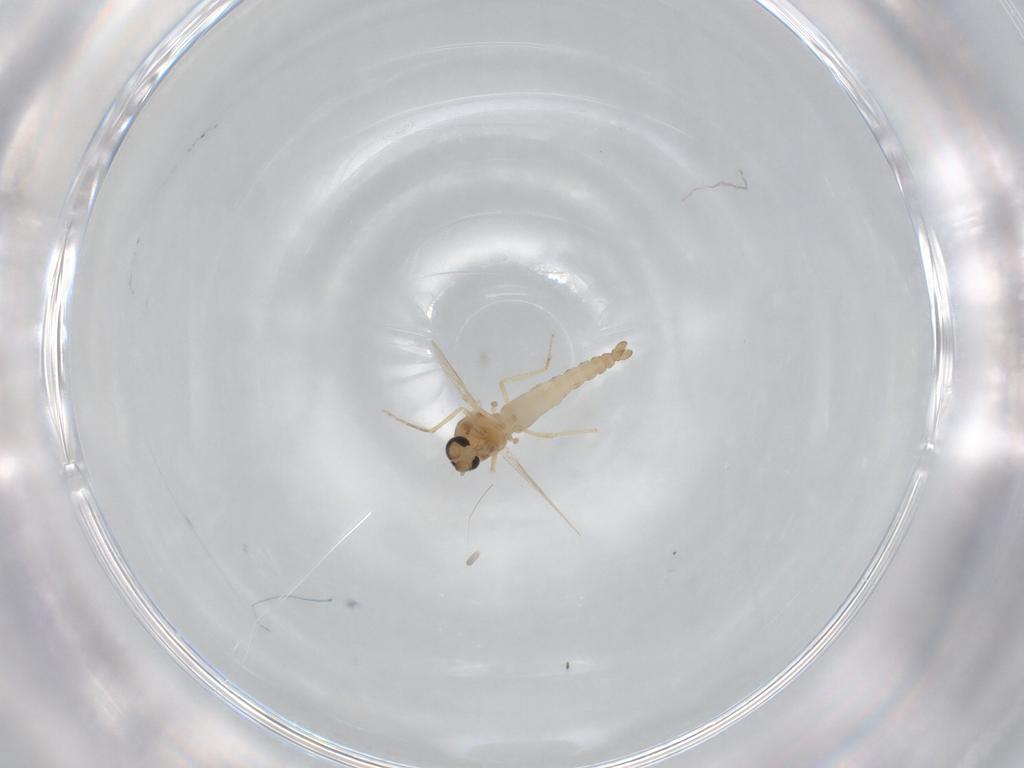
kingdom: Animalia
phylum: Arthropoda
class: Insecta
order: Diptera
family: Ceratopogonidae
